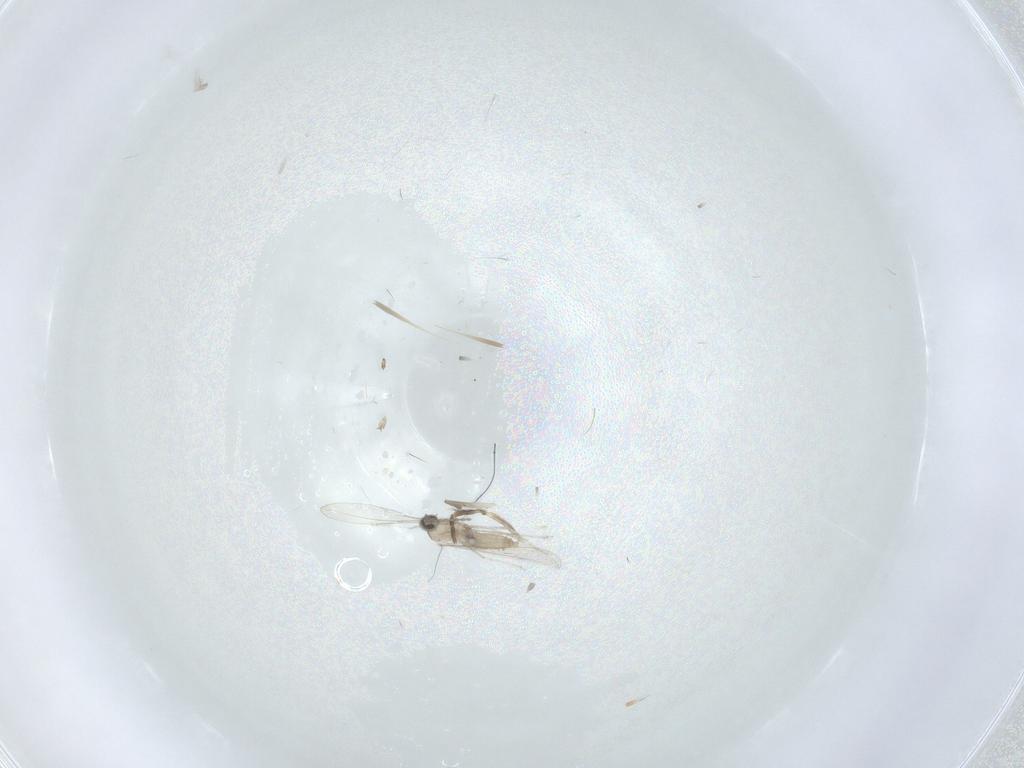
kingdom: Animalia
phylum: Arthropoda
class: Insecta
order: Diptera
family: Cecidomyiidae
